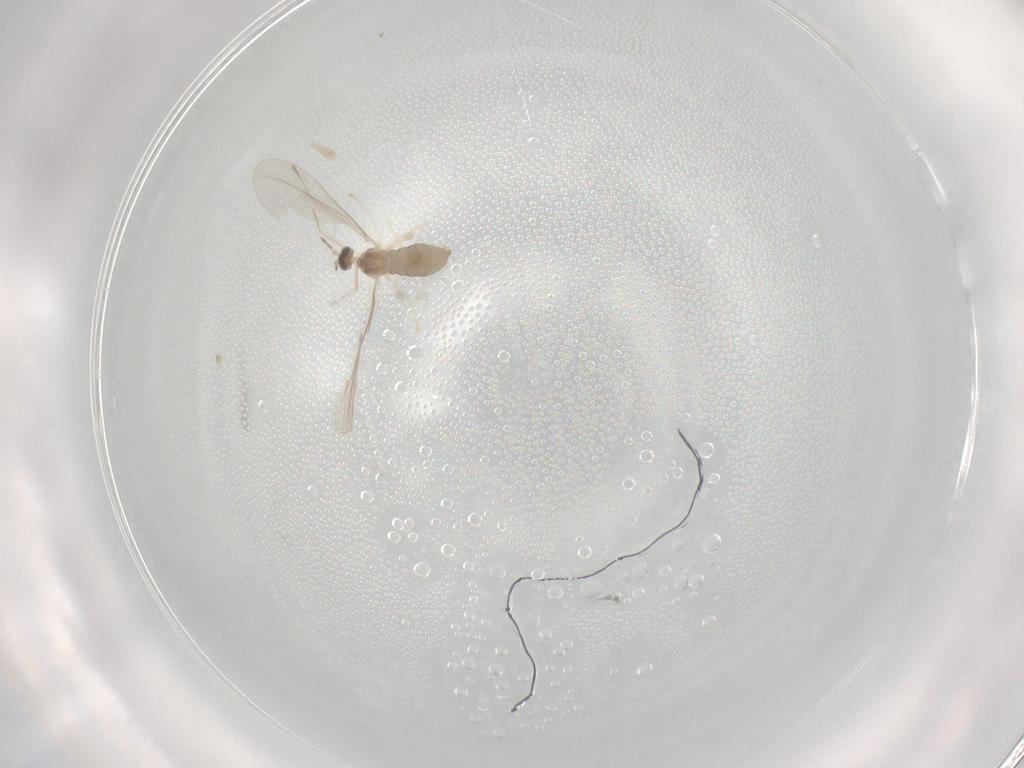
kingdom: Animalia
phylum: Arthropoda
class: Insecta
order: Diptera
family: Cecidomyiidae
